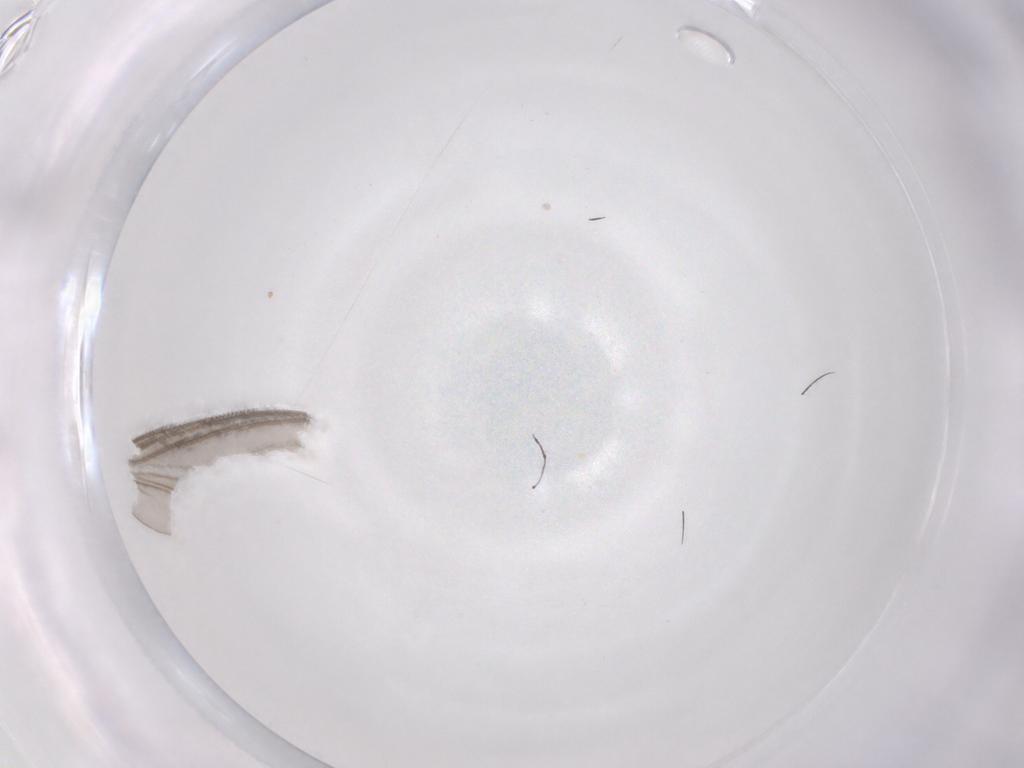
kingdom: Animalia
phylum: Arthropoda
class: Insecta
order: Diptera
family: Sciaridae
